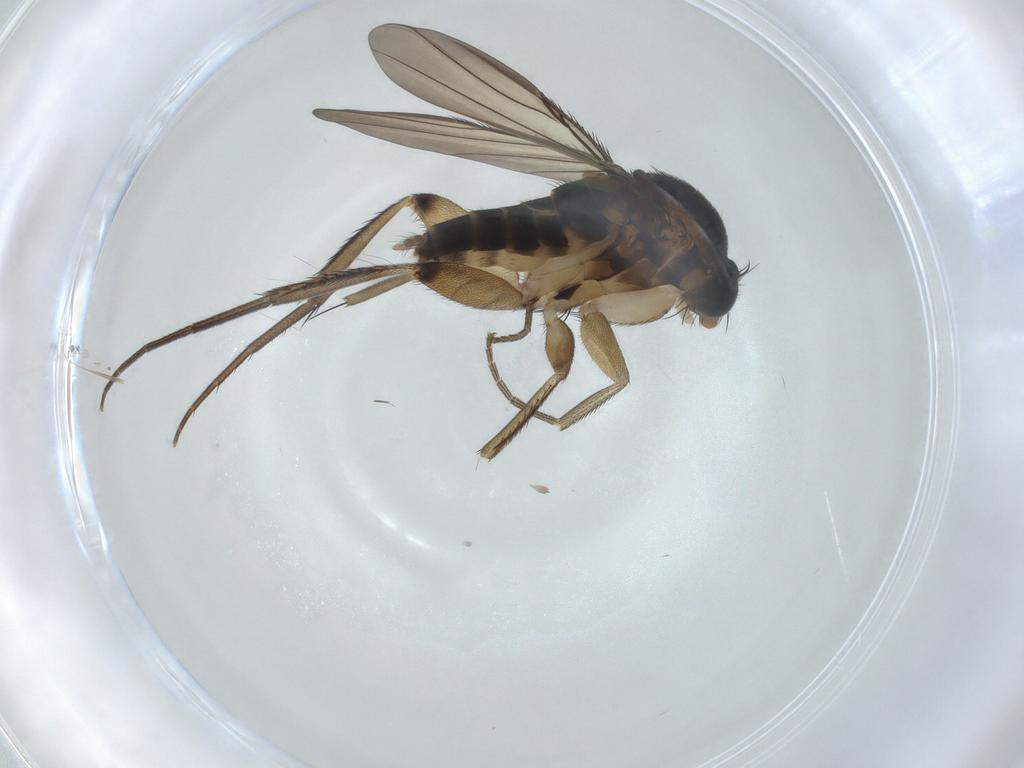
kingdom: Animalia
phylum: Arthropoda
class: Insecta
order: Diptera
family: Phoridae
